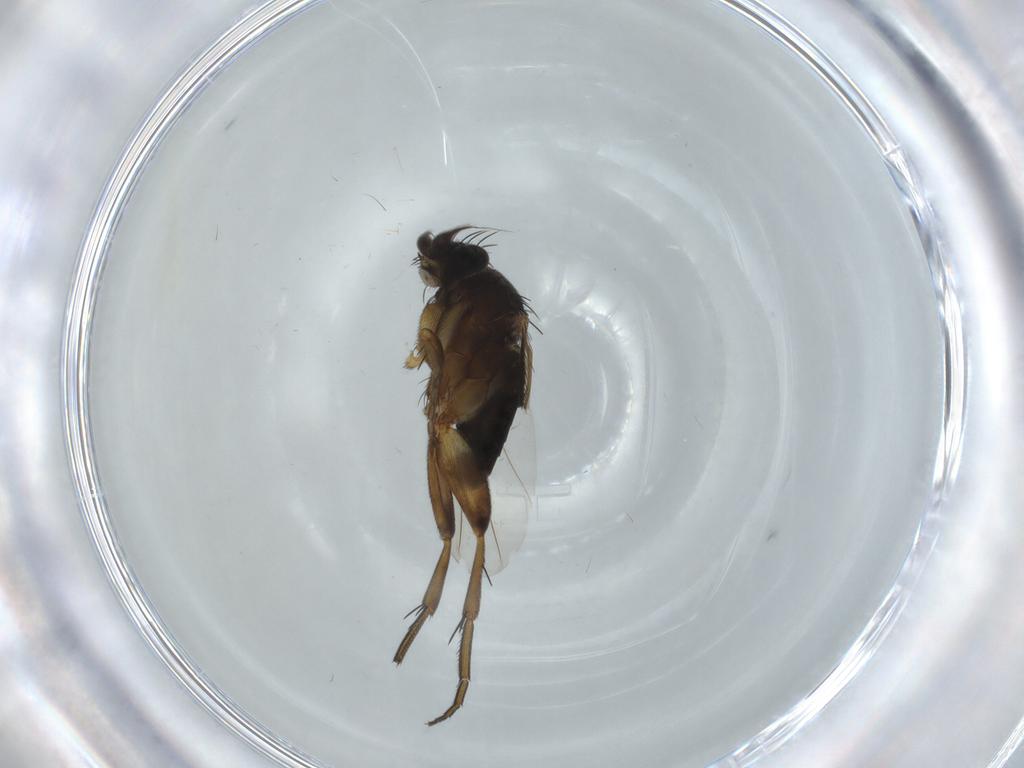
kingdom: Animalia
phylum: Arthropoda
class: Insecta
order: Diptera
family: Phoridae
